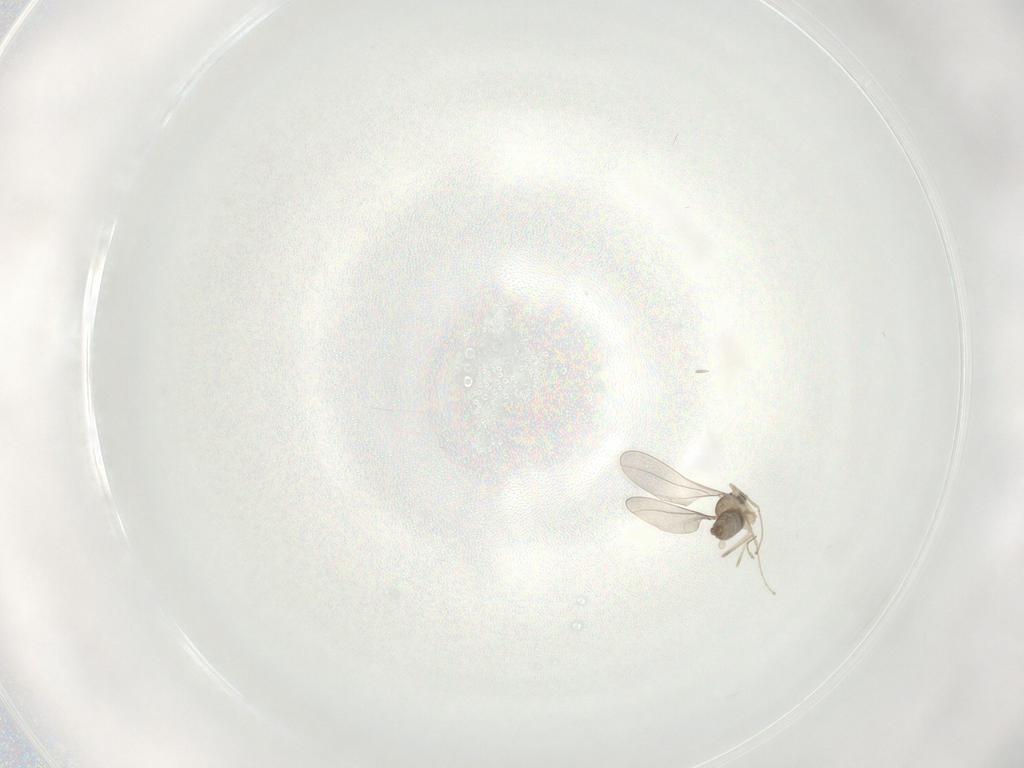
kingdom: Animalia
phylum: Arthropoda
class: Insecta
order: Diptera
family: Cecidomyiidae
